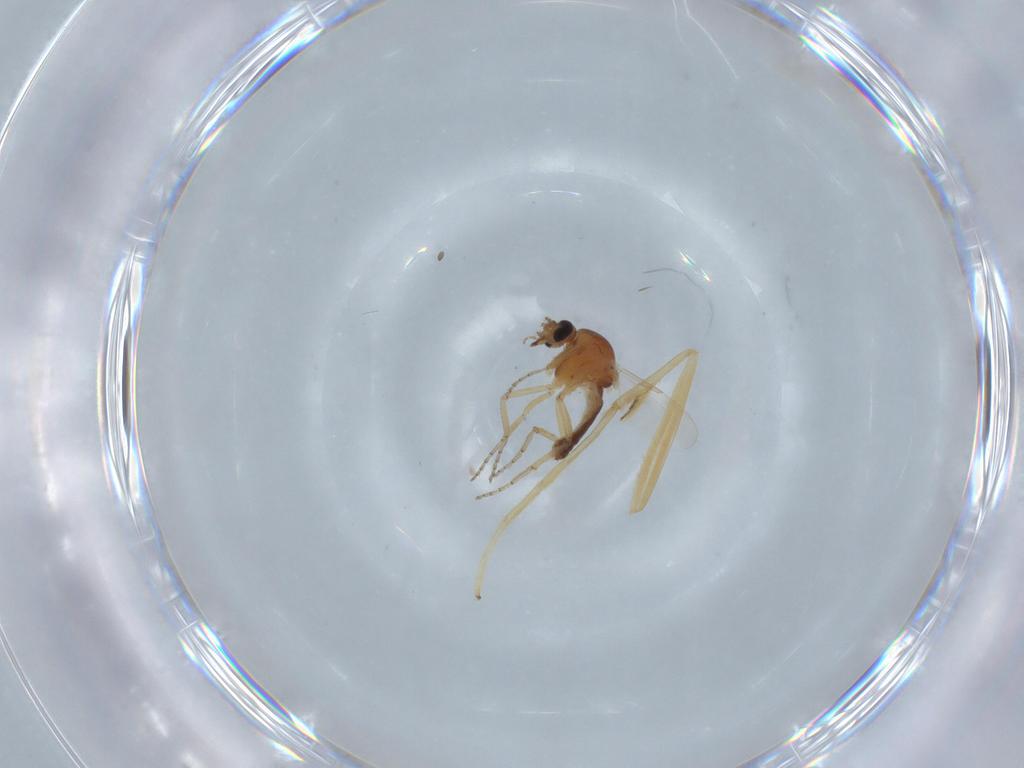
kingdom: Animalia
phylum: Arthropoda
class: Insecta
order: Diptera
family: Ceratopogonidae
